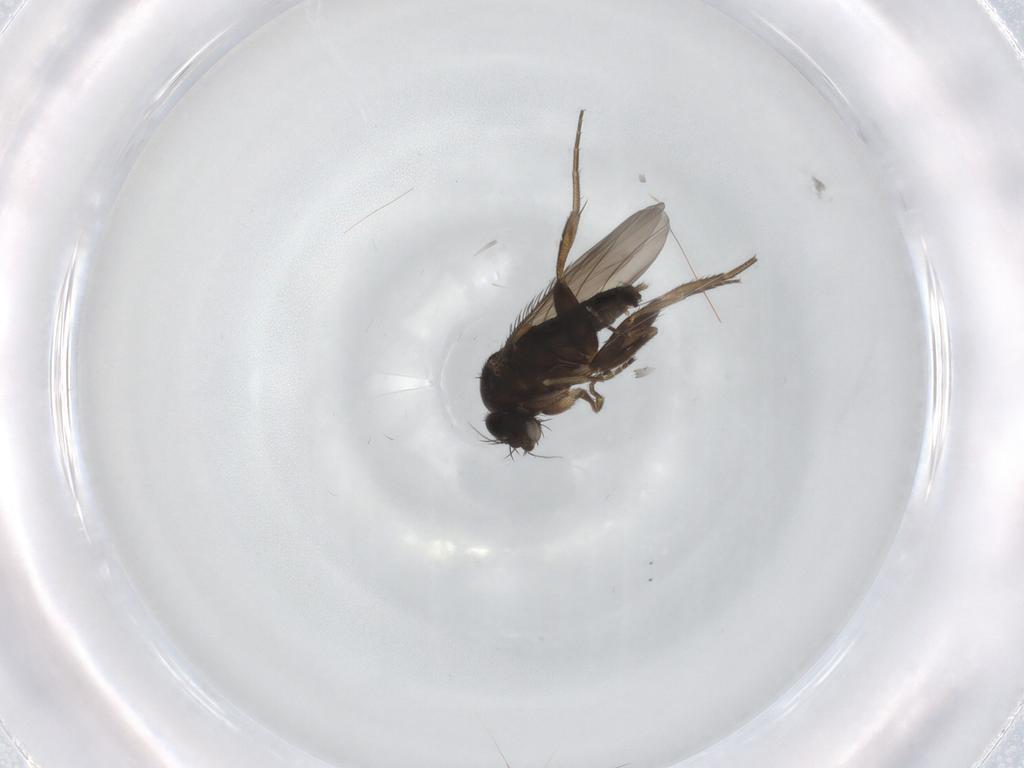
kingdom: Animalia
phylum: Arthropoda
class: Insecta
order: Diptera
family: Phoridae
